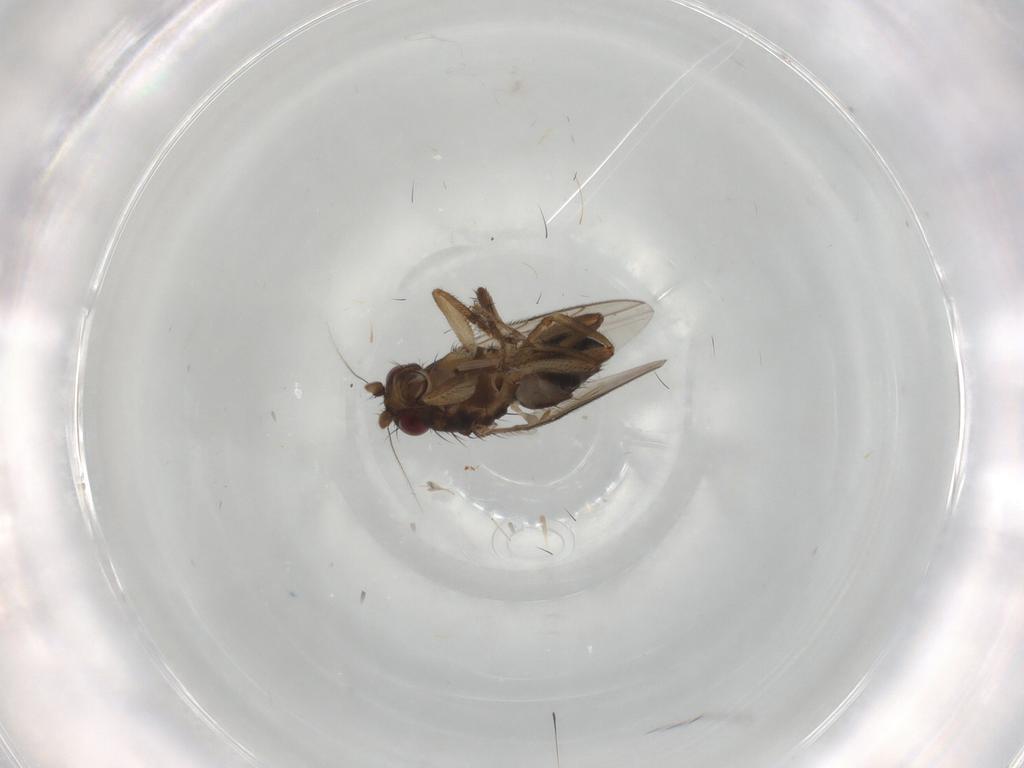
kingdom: Animalia
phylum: Arthropoda
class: Insecta
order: Diptera
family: Sphaeroceridae
